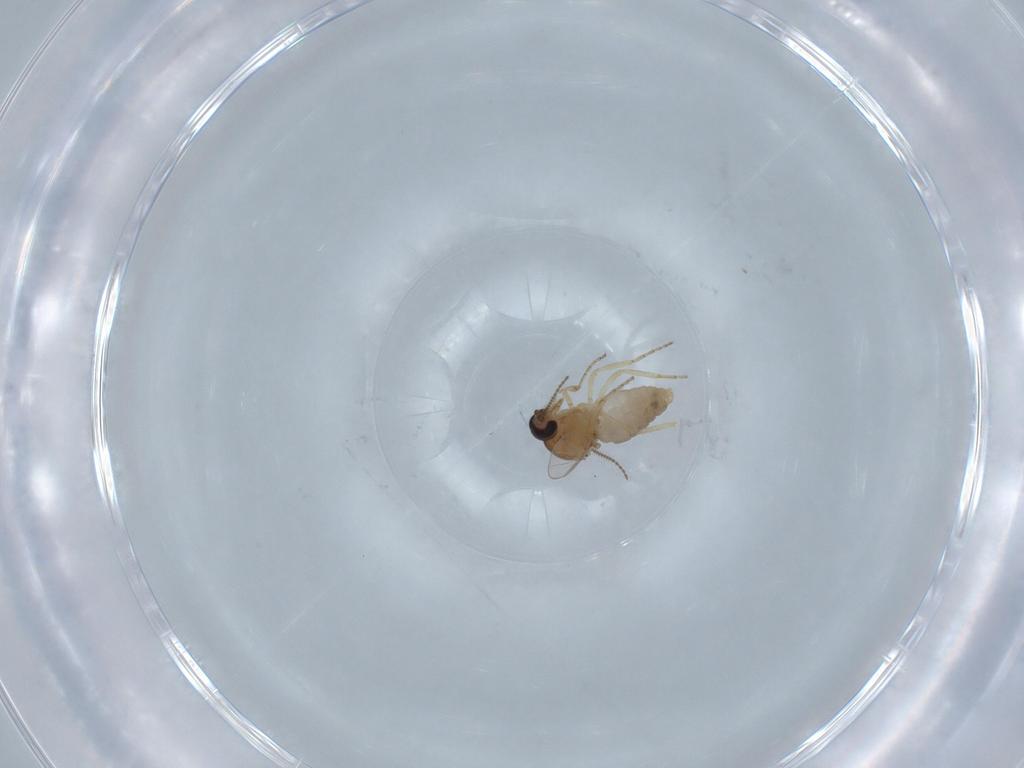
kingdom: Animalia
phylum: Arthropoda
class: Insecta
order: Diptera
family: Ceratopogonidae
